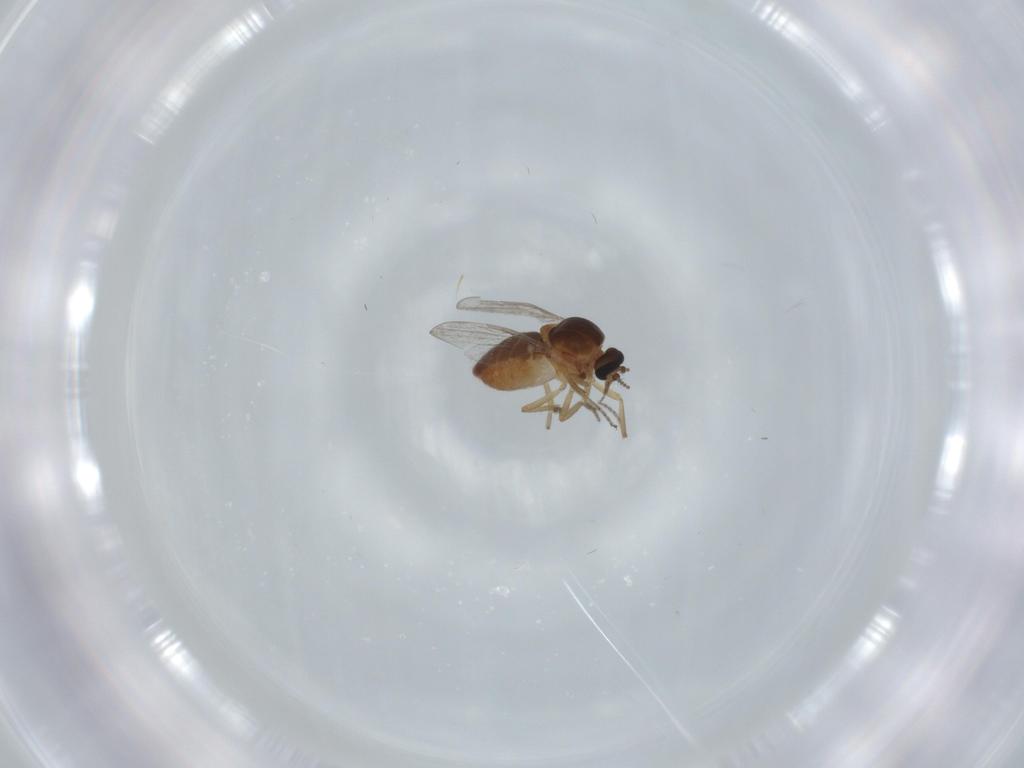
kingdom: Animalia
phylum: Arthropoda
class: Insecta
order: Diptera
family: Ceratopogonidae
